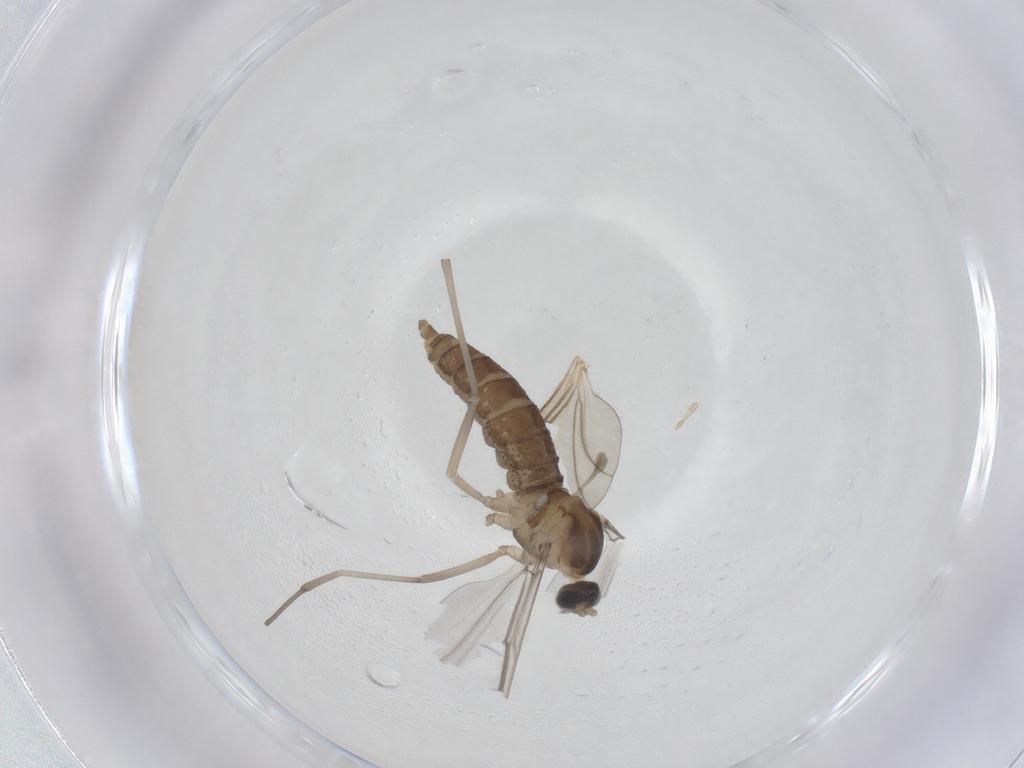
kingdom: Animalia
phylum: Arthropoda
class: Insecta
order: Diptera
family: Cecidomyiidae
